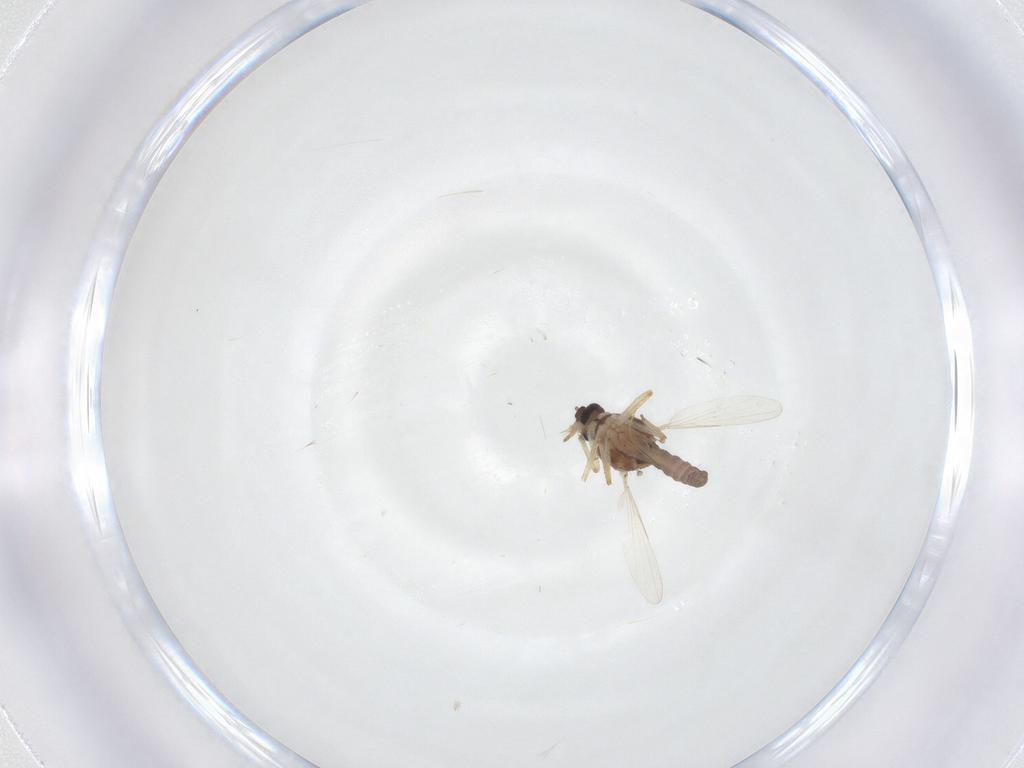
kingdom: Animalia
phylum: Arthropoda
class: Insecta
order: Diptera
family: Ceratopogonidae
